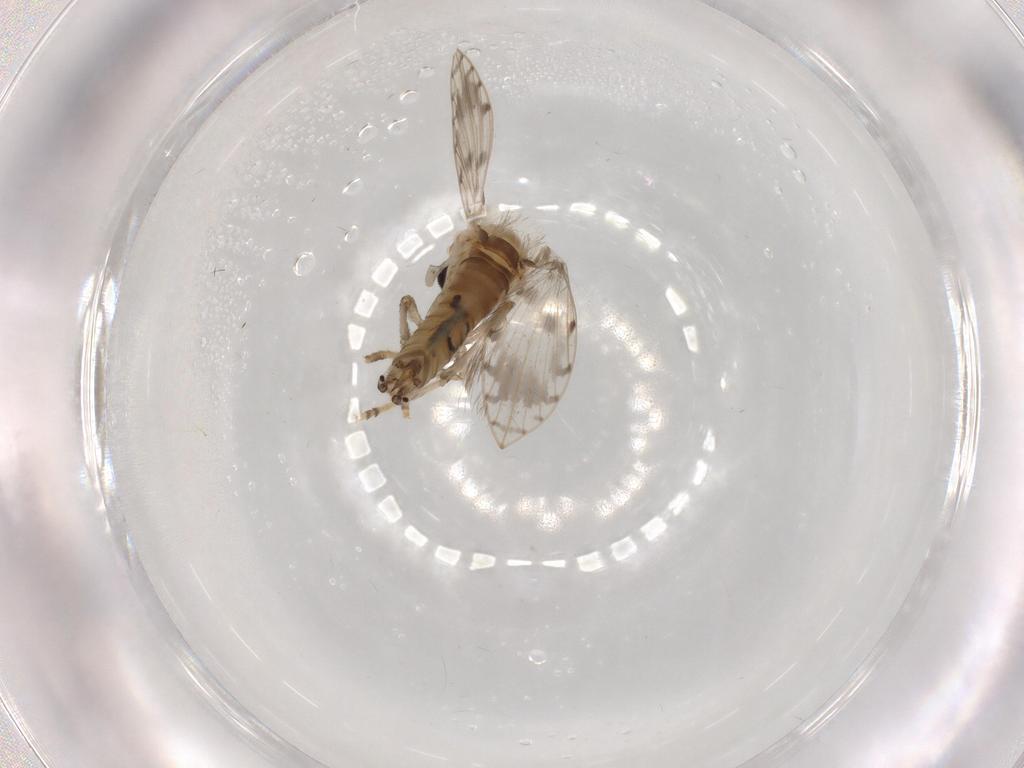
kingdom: Animalia
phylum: Arthropoda
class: Insecta
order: Diptera
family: Psychodidae
